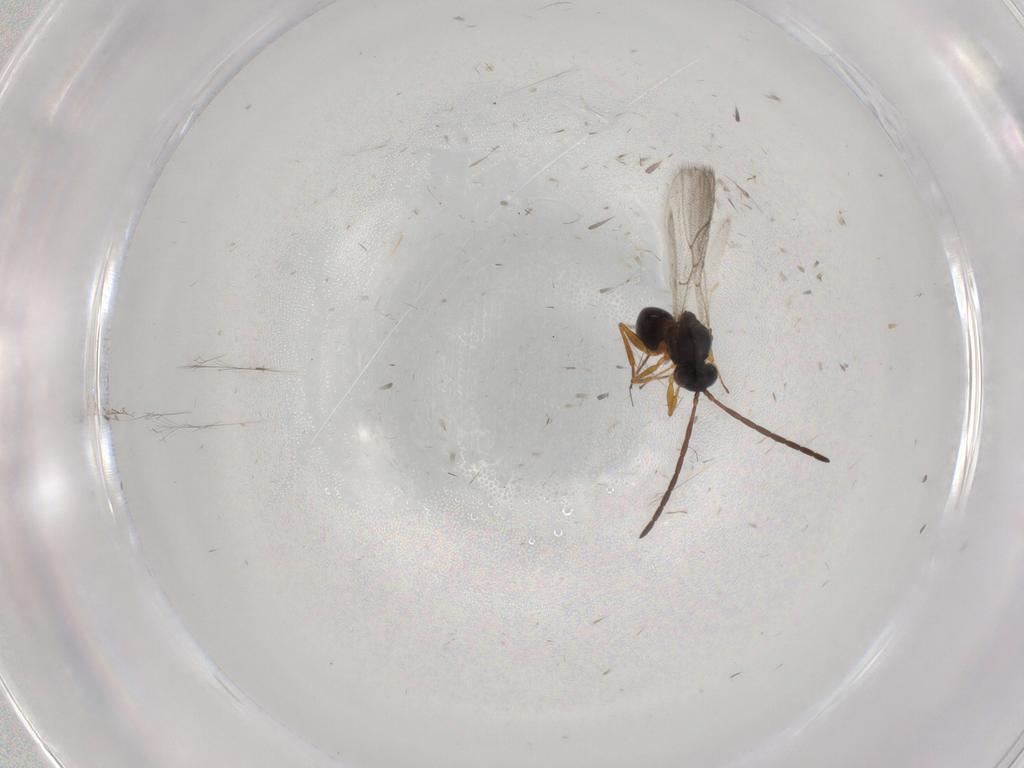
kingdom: Animalia
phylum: Arthropoda
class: Insecta
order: Hymenoptera
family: Figitidae
